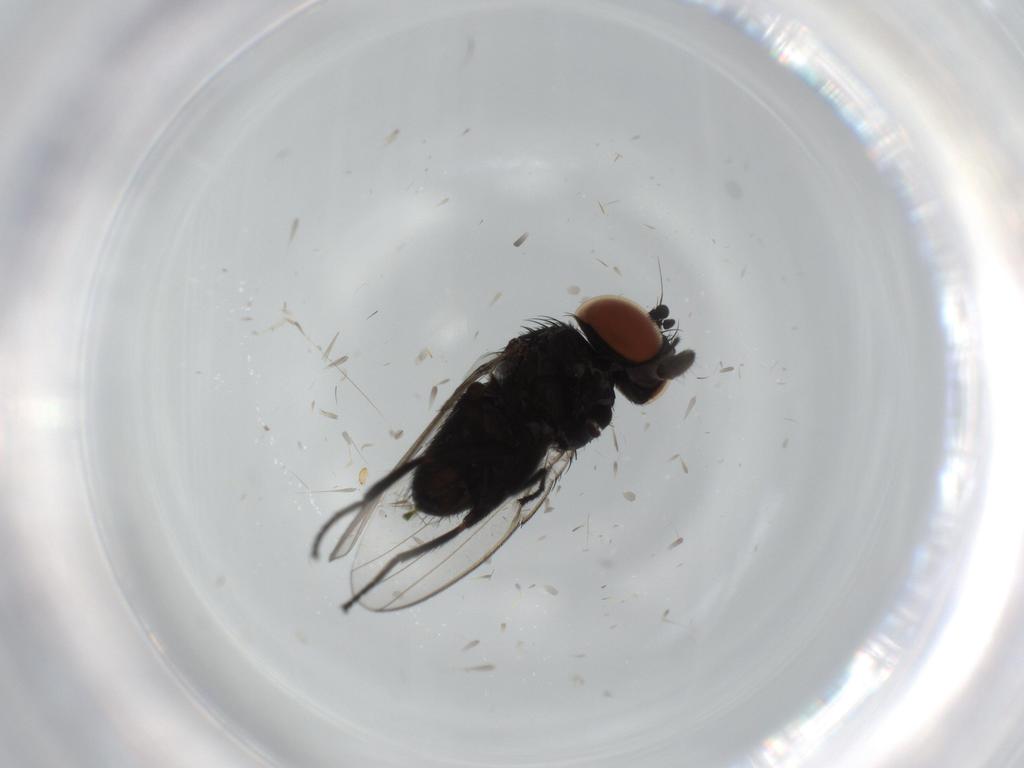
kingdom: Animalia
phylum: Arthropoda
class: Insecta
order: Diptera
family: Milichiidae
